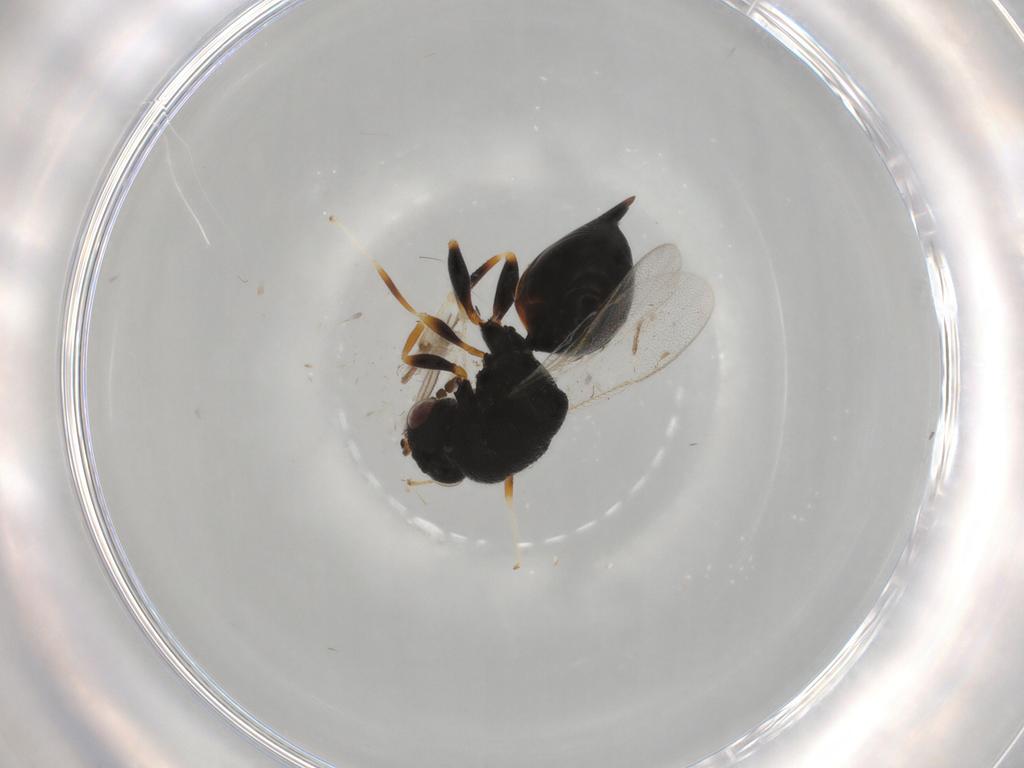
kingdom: Animalia
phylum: Arthropoda
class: Insecta
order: Hymenoptera
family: Eurytomidae
